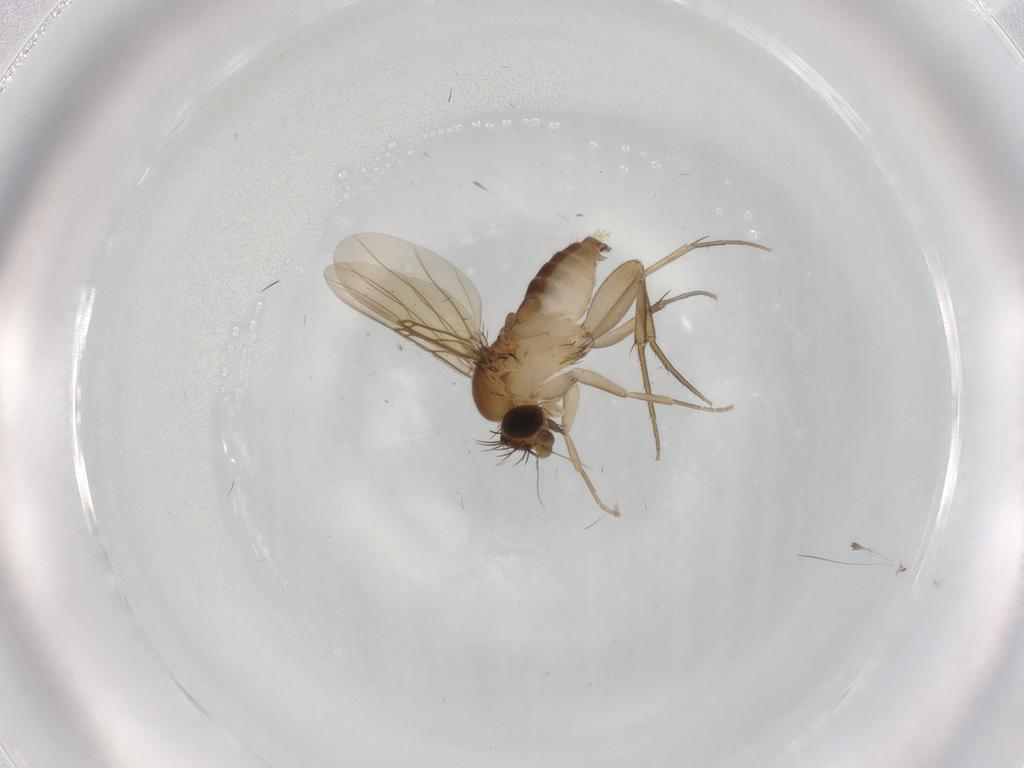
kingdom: Animalia
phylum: Arthropoda
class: Insecta
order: Diptera
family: Phoridae
